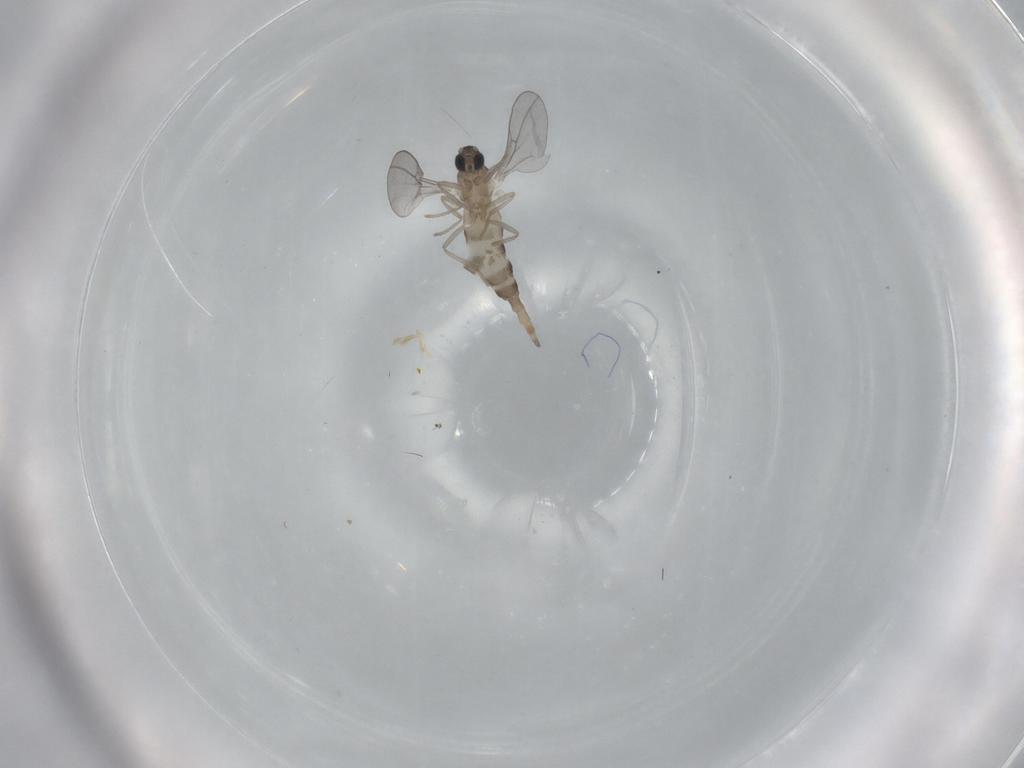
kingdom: Animalia
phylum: Arthropoda
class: Insecta
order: Diptera
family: Cecidomyiidae
